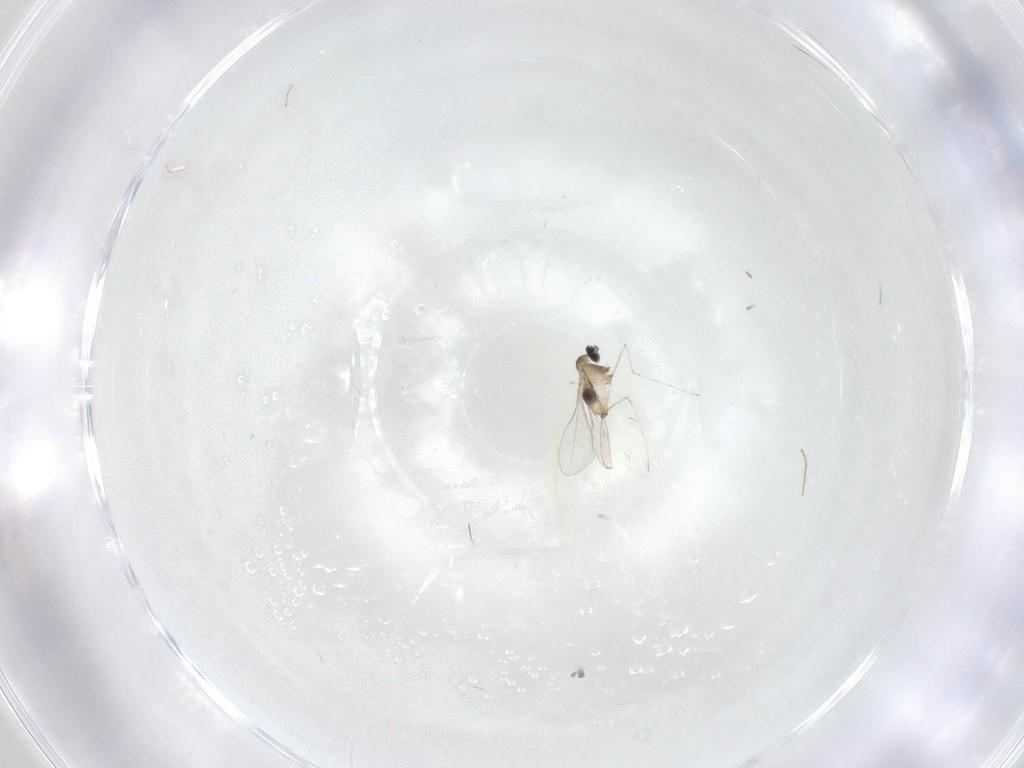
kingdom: Animalia
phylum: Arthropoda
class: Insecta
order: Diptera
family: Cecidomyiidae
